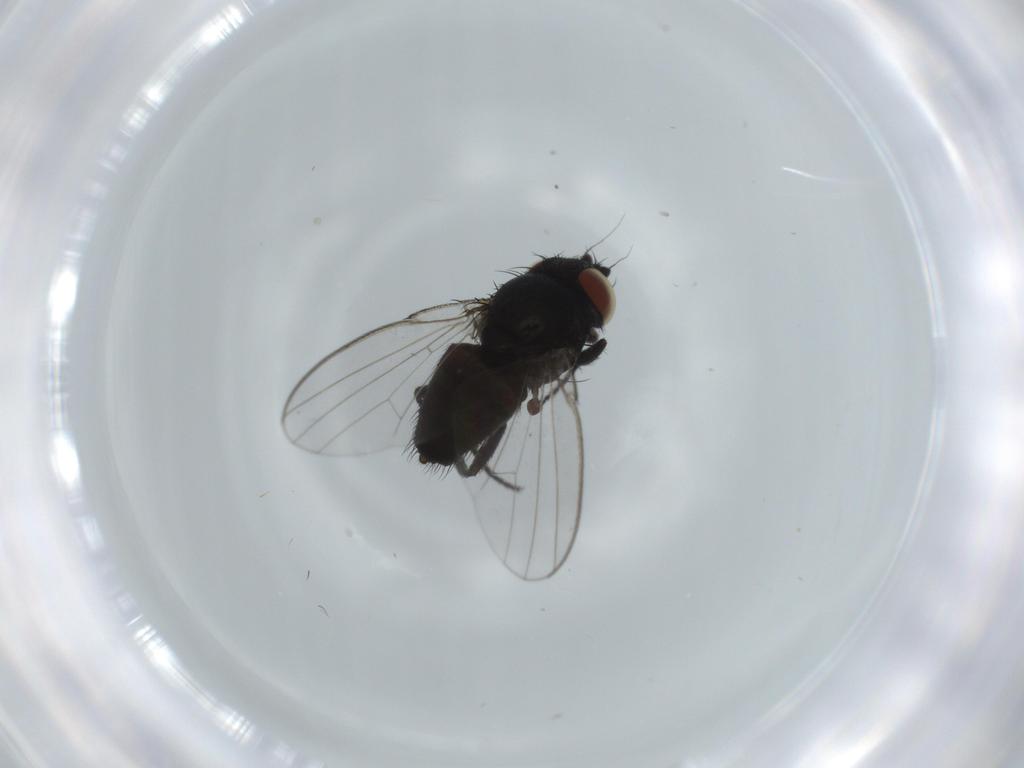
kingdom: Animalia
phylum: Arthropoda
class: Insecta
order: Diptera
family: Milichiidae
